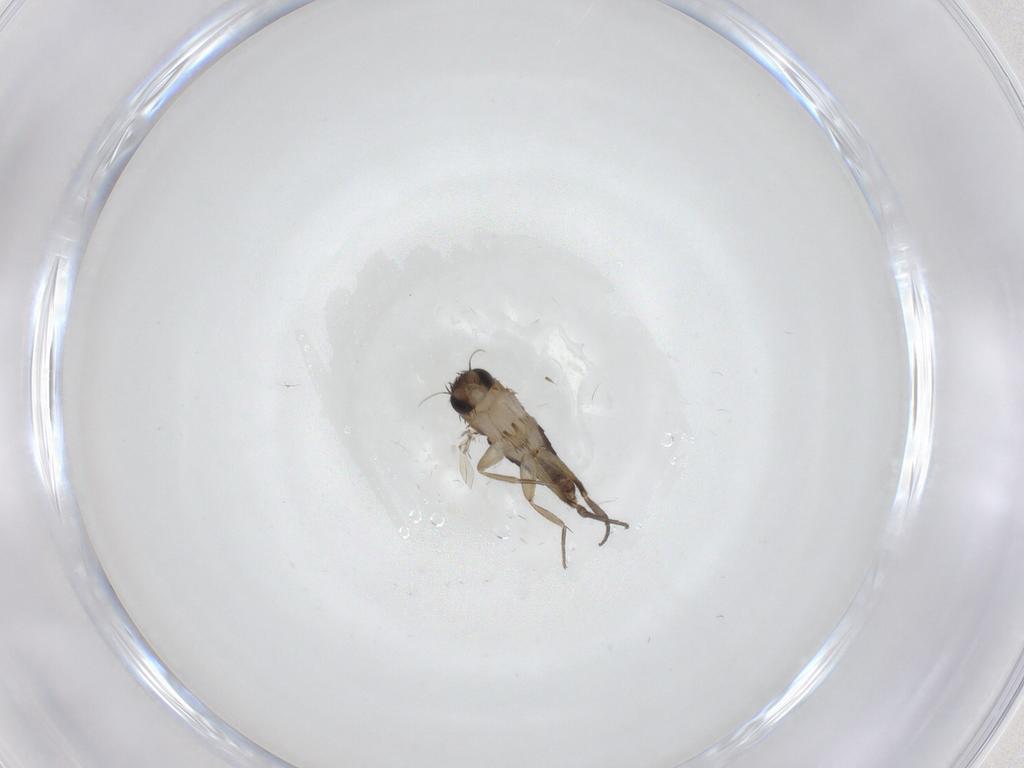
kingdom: Animalia
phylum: Arthropoda
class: Insecta
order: Diptera
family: Phoridae
